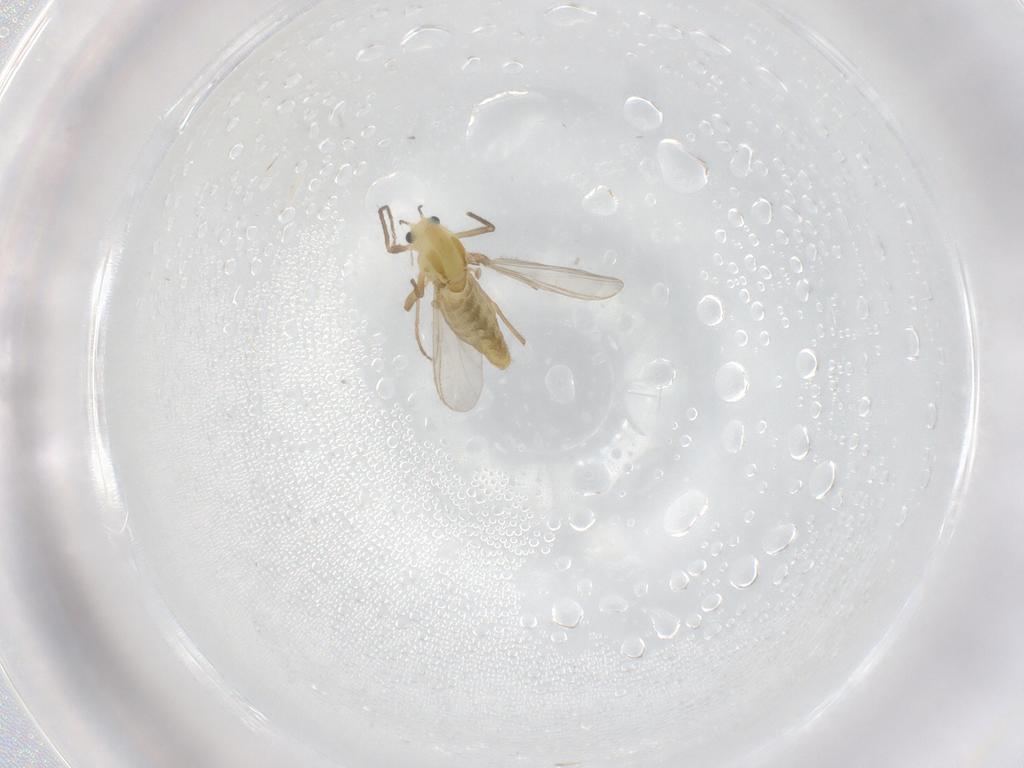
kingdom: Animalia
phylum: Arthropoda
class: Insecta
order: Diptera
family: Chironomidae
